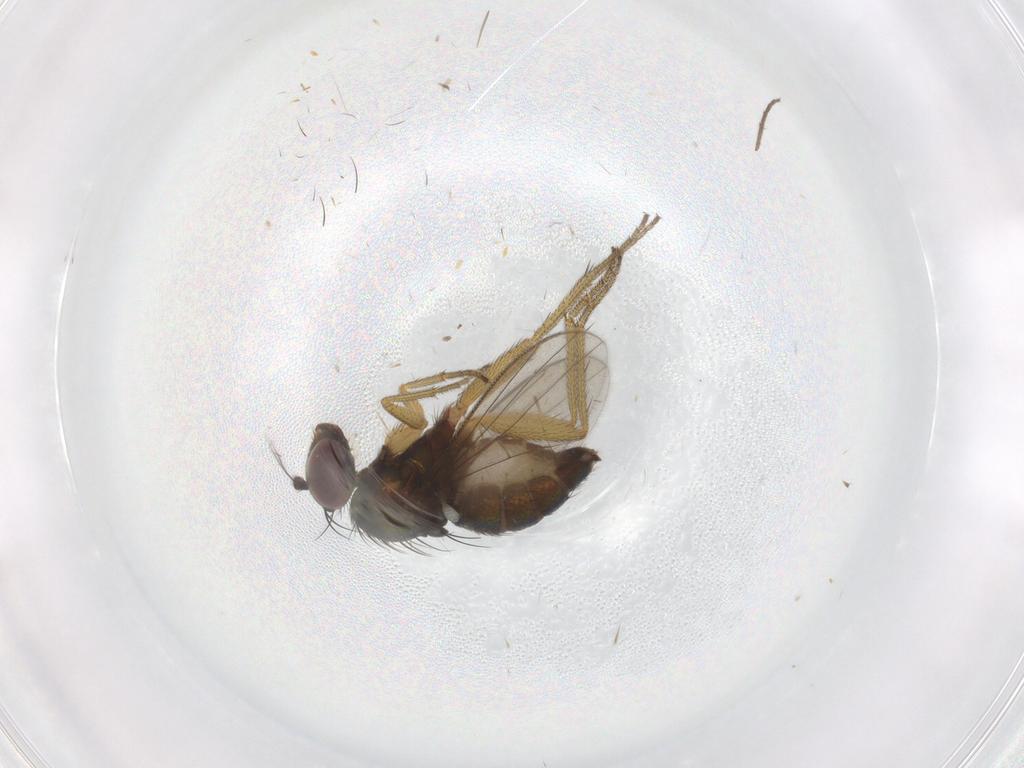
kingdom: Animalia
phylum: Arthropoda
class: Insecta
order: Diptera
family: Dolichopodidae
